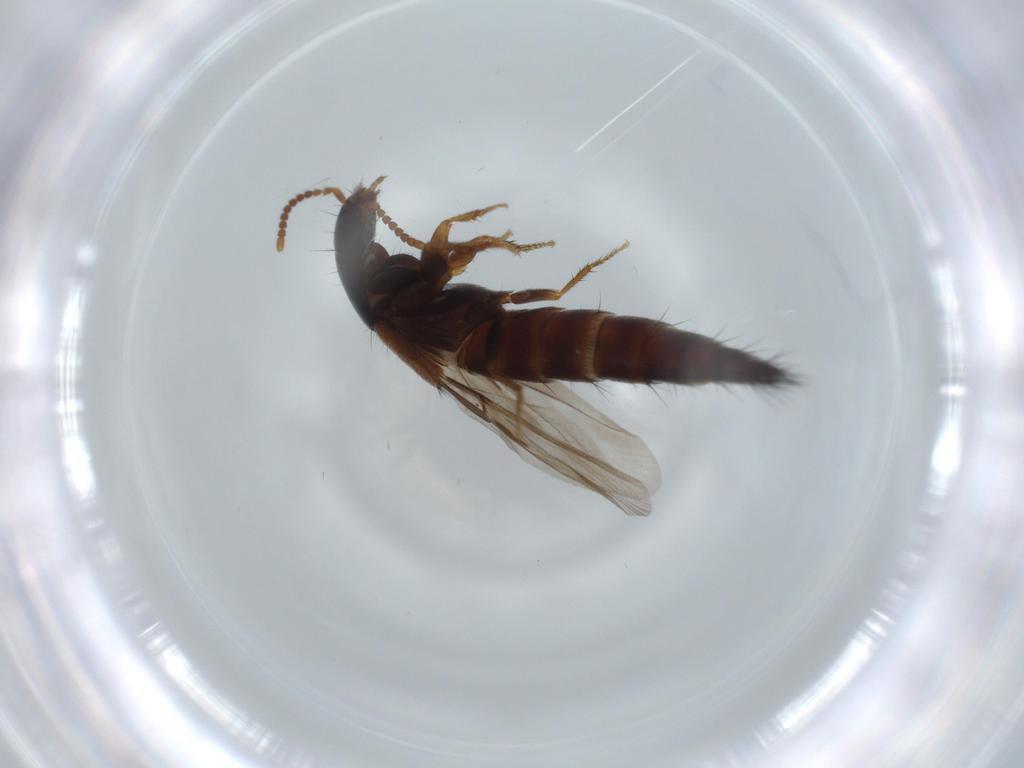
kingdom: Animalia
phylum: Arthropoda
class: Insecta
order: Coleoptera
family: Staphylinidae
